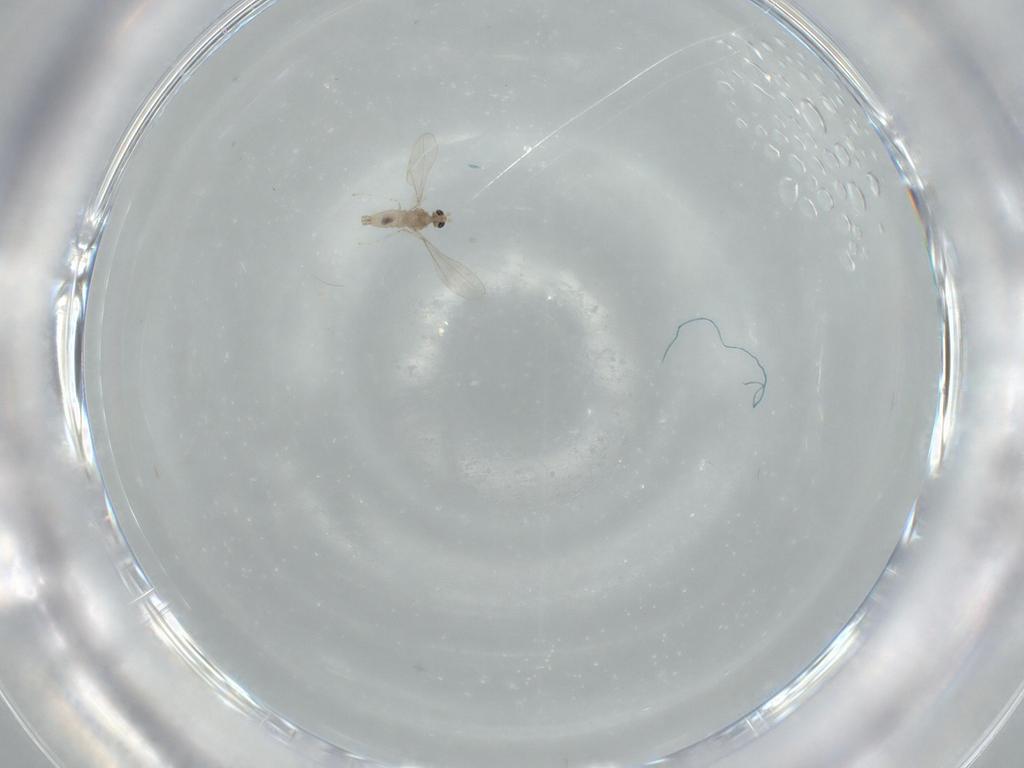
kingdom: Animalia
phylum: Arthropoda
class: Insecta
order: Diptera
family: Cecidomyiidae
